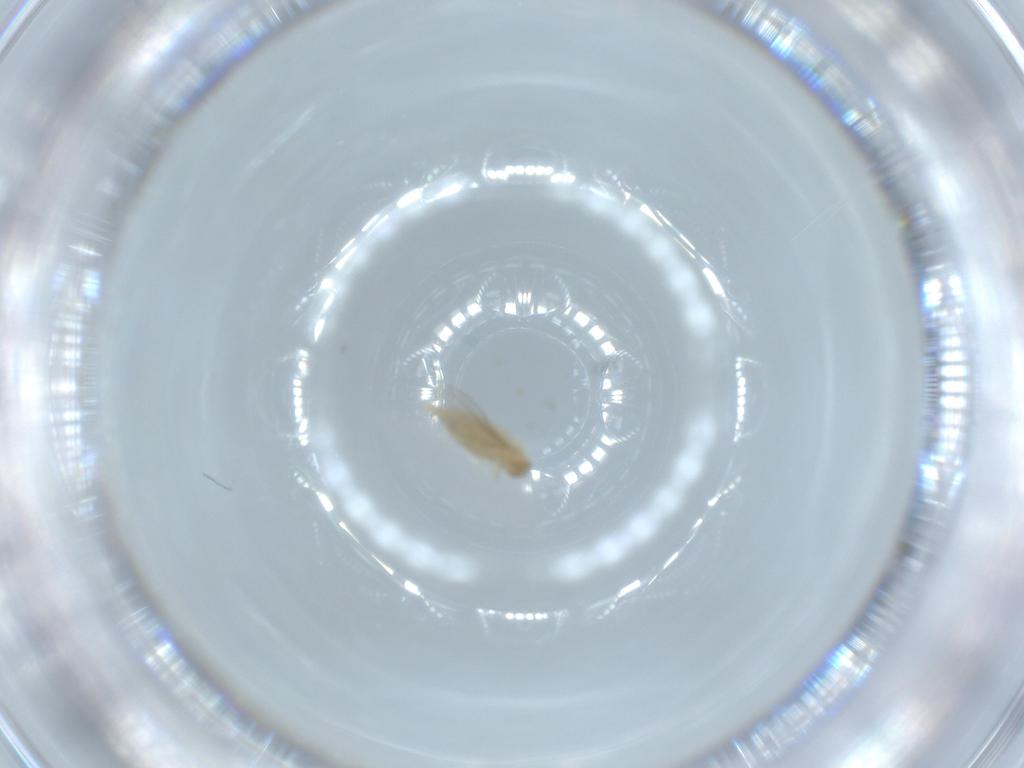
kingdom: Animalia
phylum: Arthropoda
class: Insecta
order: Diptera
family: Cecidomyiidae
